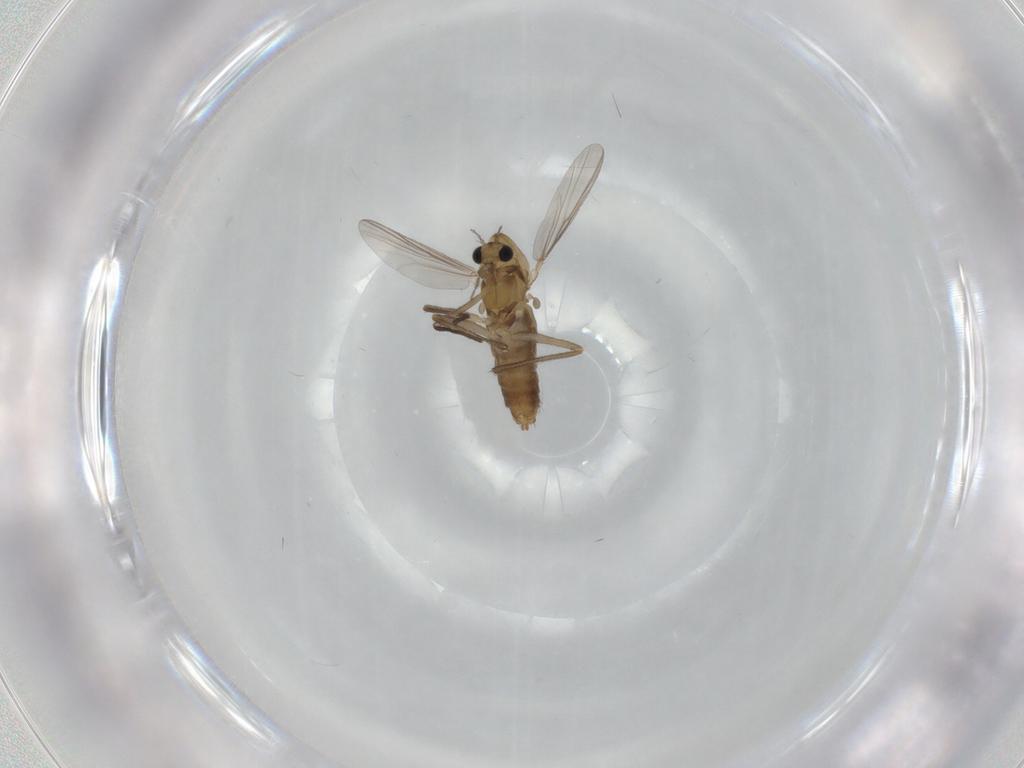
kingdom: Animalia
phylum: Arthropoda
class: Insecta
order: Diptera
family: Chironomidae
